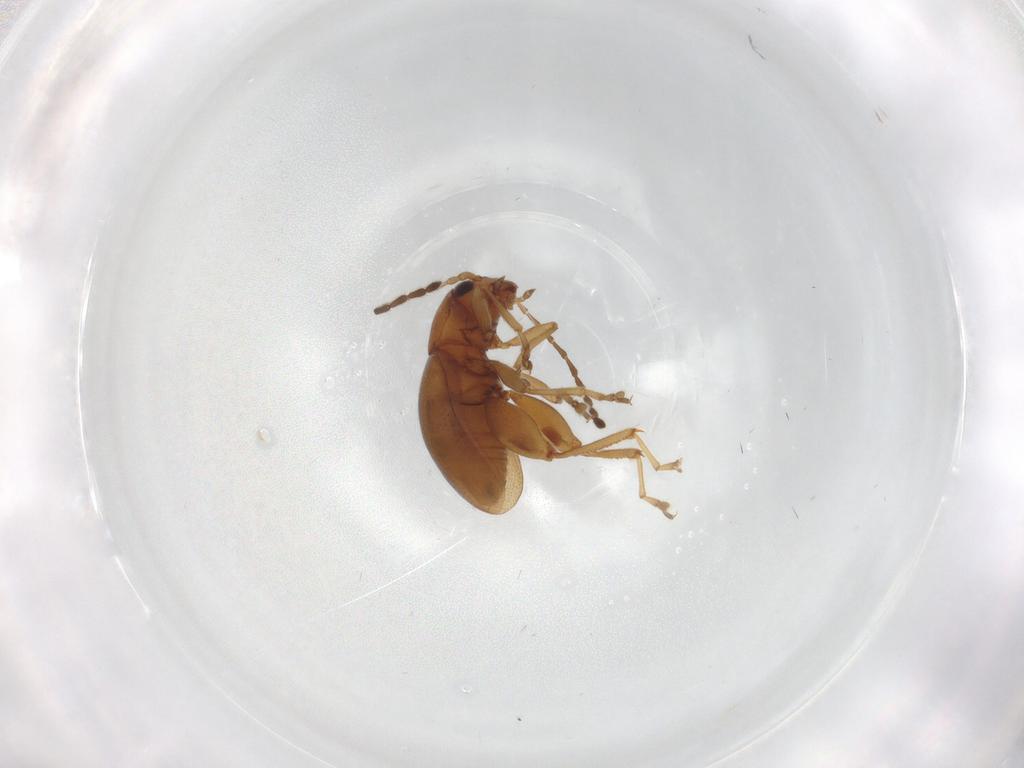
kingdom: Animalia
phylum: Arthropoda
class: Insecta
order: Coleoptera
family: Chrysomelidae
